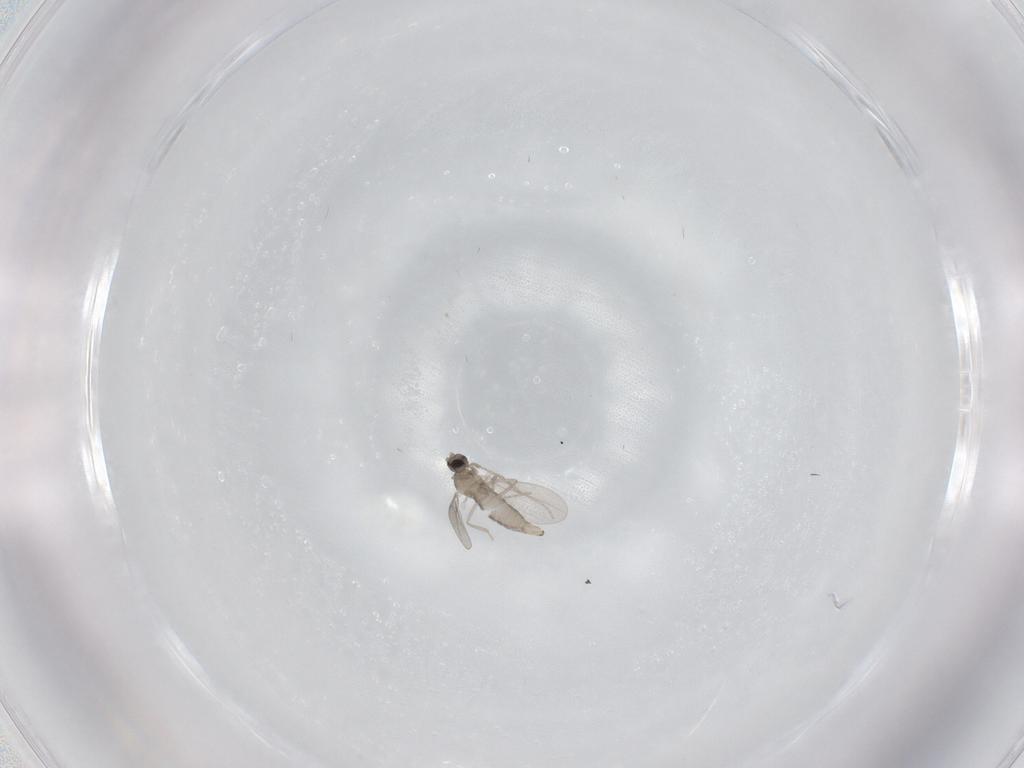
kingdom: Animalia
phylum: Arthropoda
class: Insecta
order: Diptera
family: Cecidomyiidae
